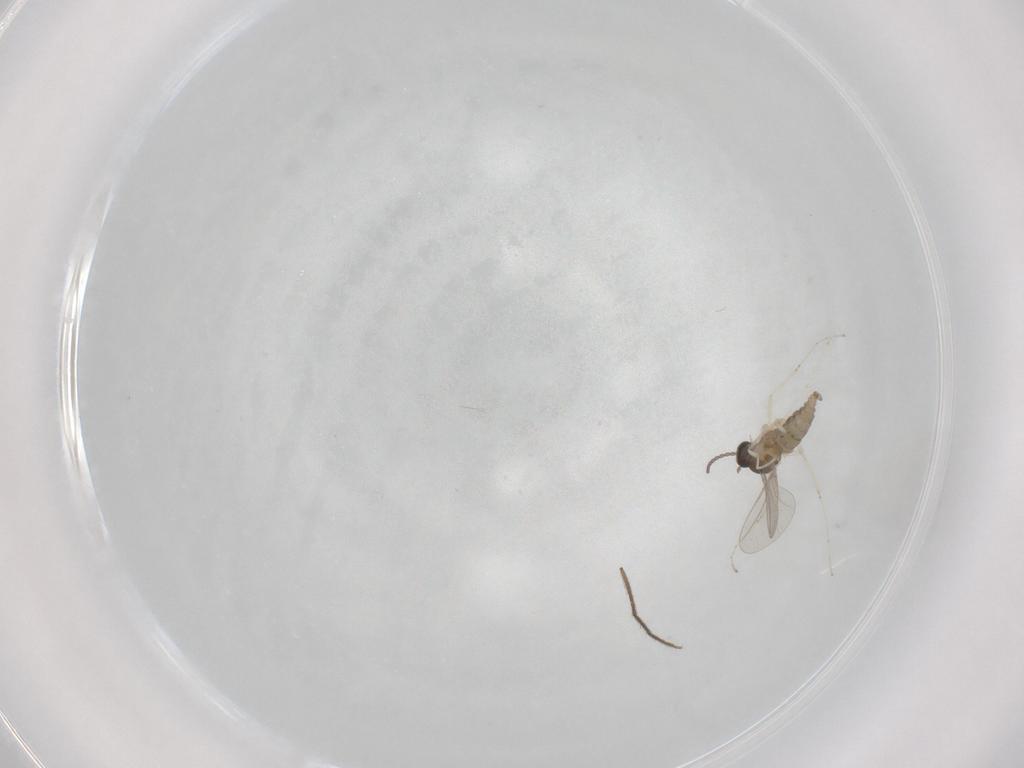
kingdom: Animalia
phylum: Arthropoda
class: Insecta
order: Diptera
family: Cecidomyiidae
